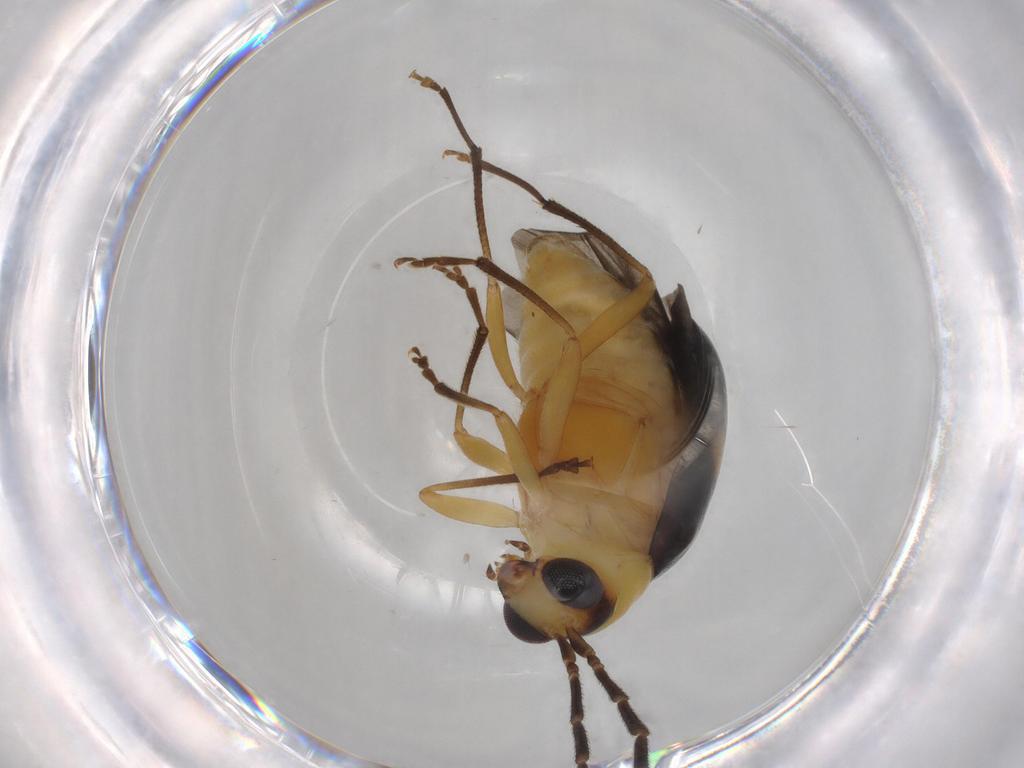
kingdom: Animalia
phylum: Arthropoda
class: Insecta
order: Coleoptera
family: Chrysomelidae
